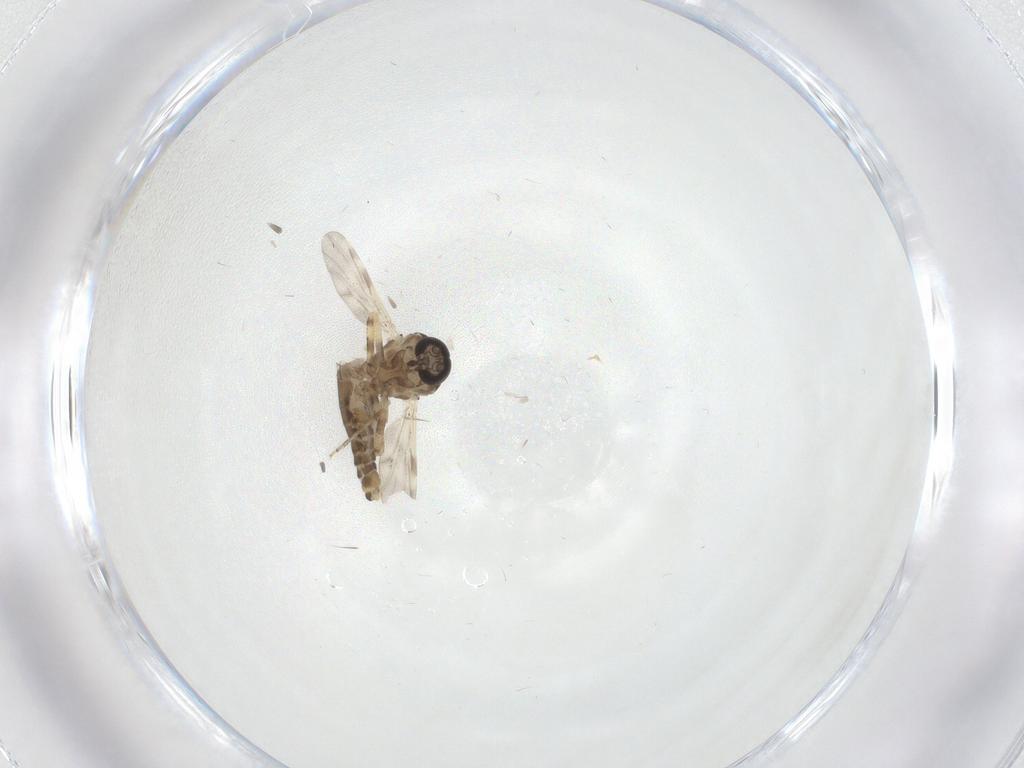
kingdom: Animalia
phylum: Arthropoda
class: Insecta
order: Diptera
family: Ceratopogonidae
